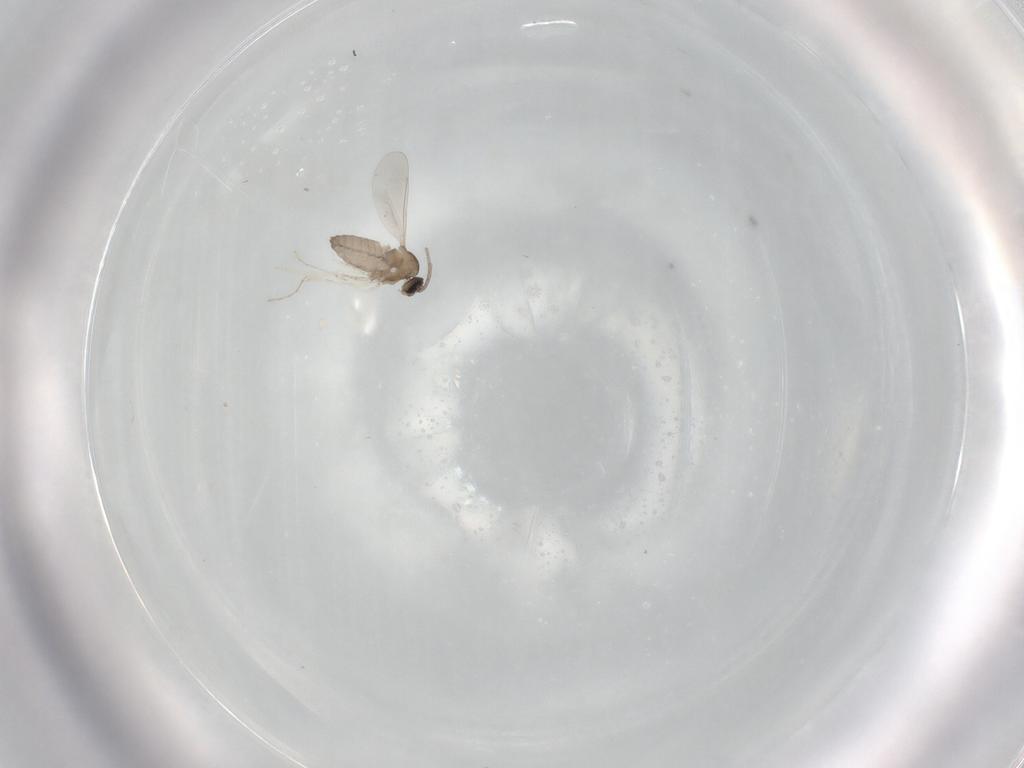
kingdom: Animalia
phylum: Arthropoda
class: Insecta
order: Diptera
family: Cecidomyiidae
